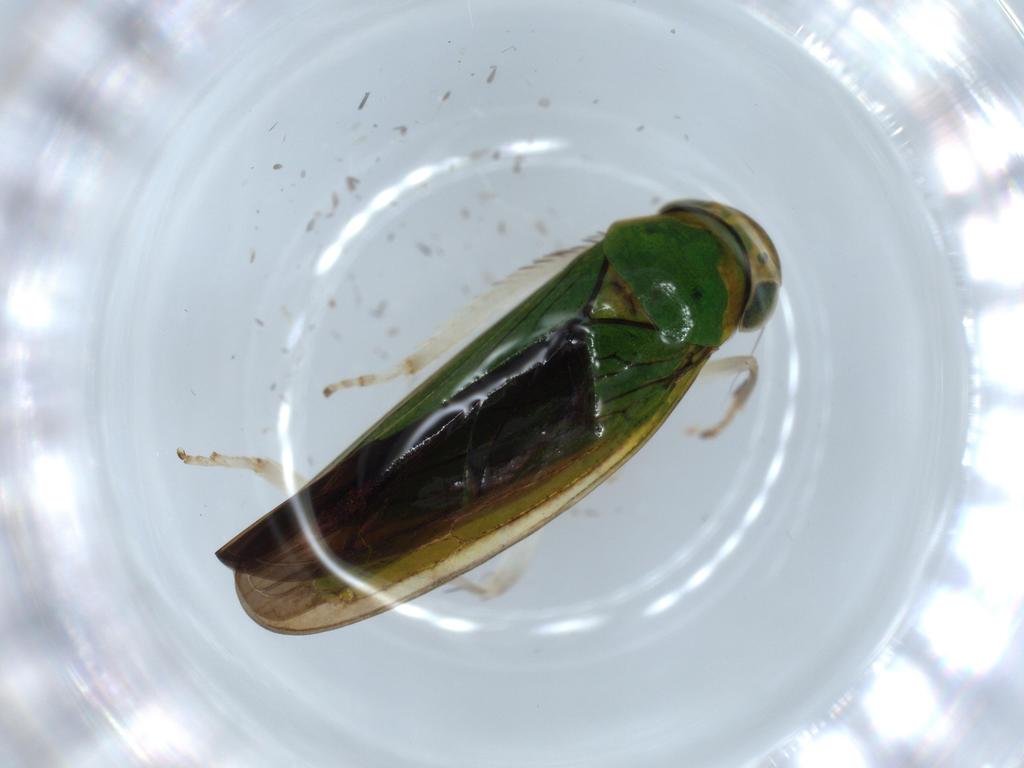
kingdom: Animalia
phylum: Arthropoda
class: Insecta
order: Hemiptera
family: Cicadellidae
